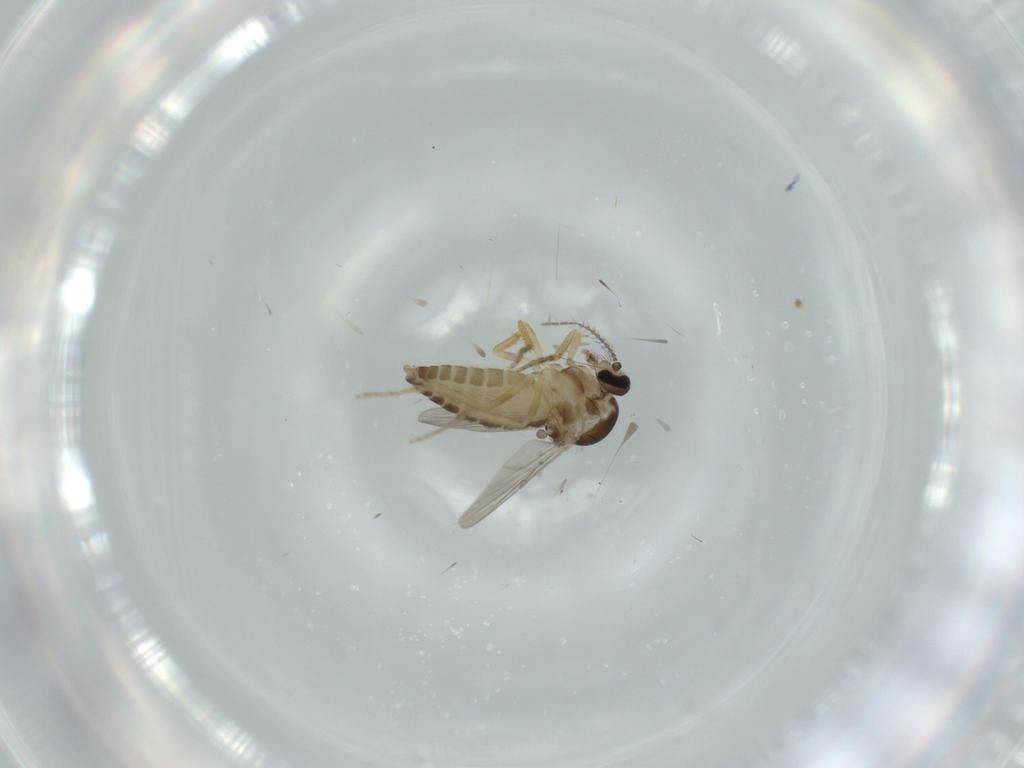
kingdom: Animalia
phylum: Arthropoda
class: Insecta
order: Diptera
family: Ceratopogonidae
